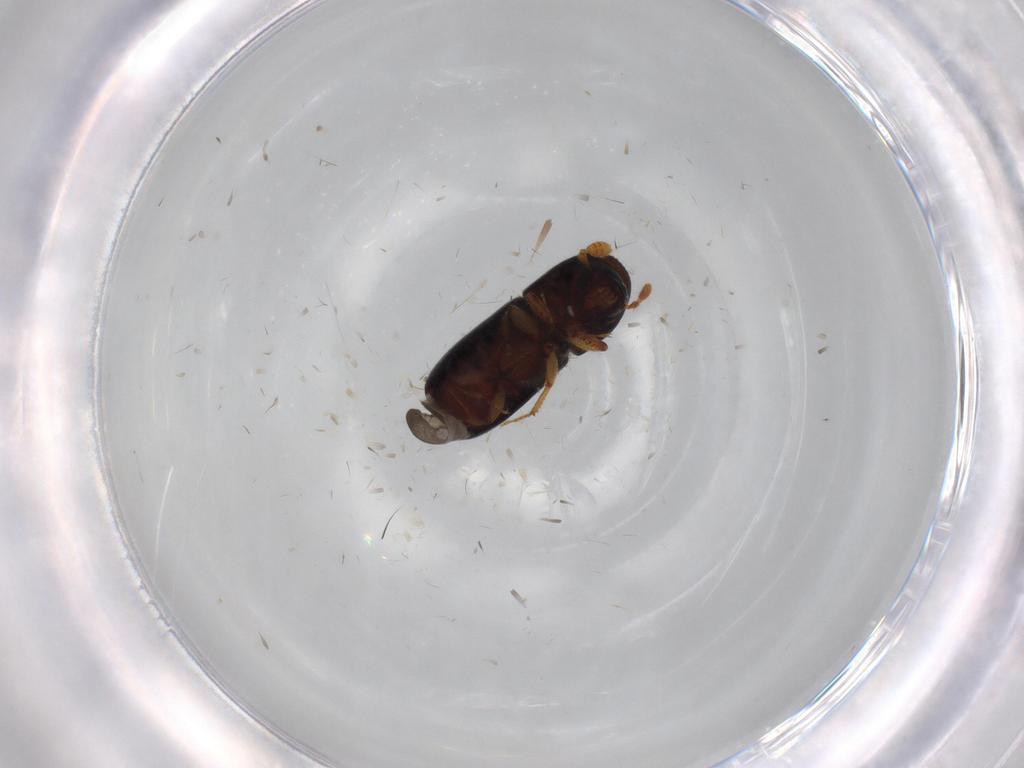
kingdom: Animalia
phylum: Arthropoda
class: Insecta
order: Coleoptera
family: Curculionidae
